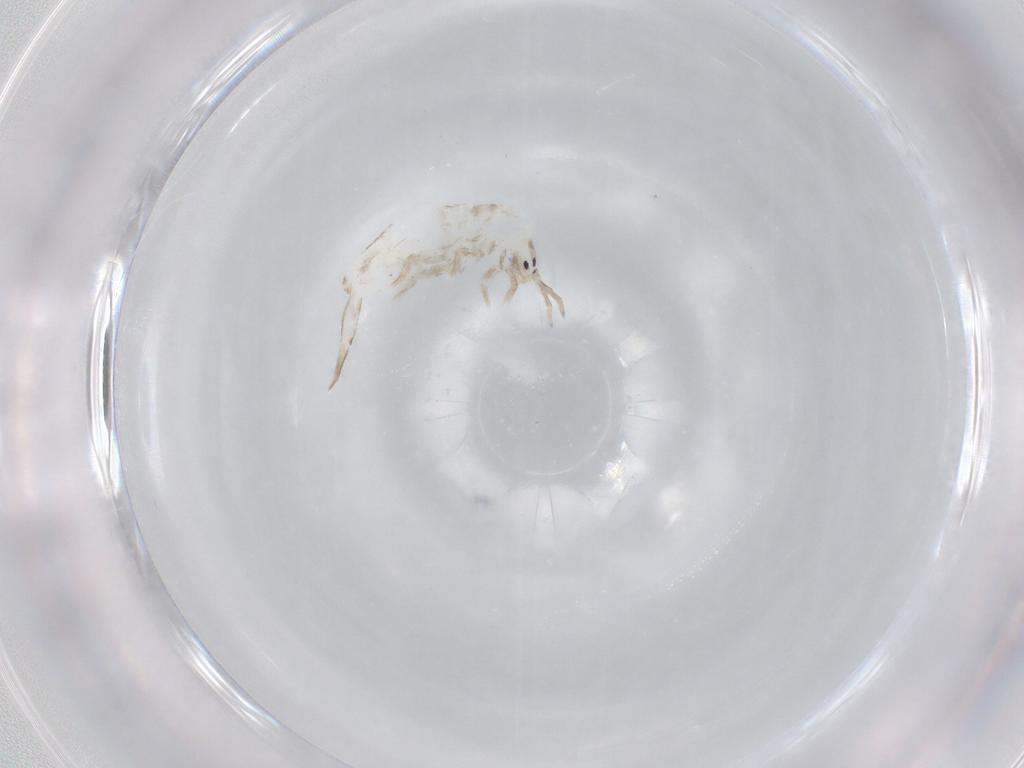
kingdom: Animalia
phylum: Arthropoda
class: Collembola
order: Entomobryomorpha
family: Entomobryidae
